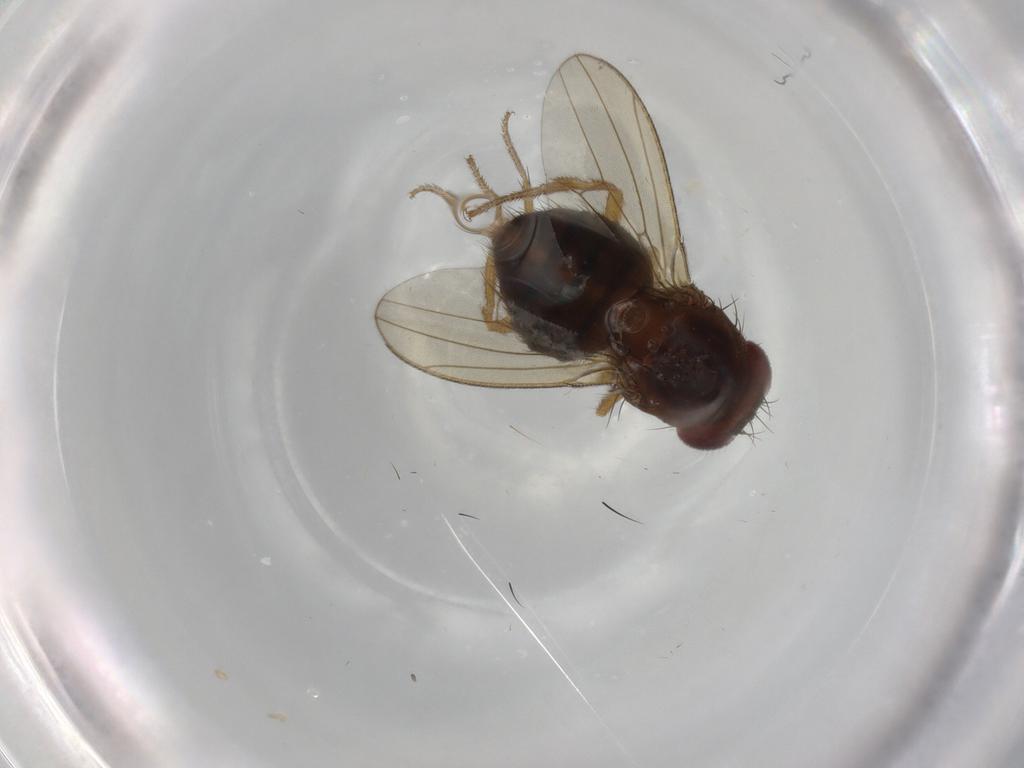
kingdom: Animalia
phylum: Arthropoda
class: Insecta
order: Diptera
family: Drosophilidae
